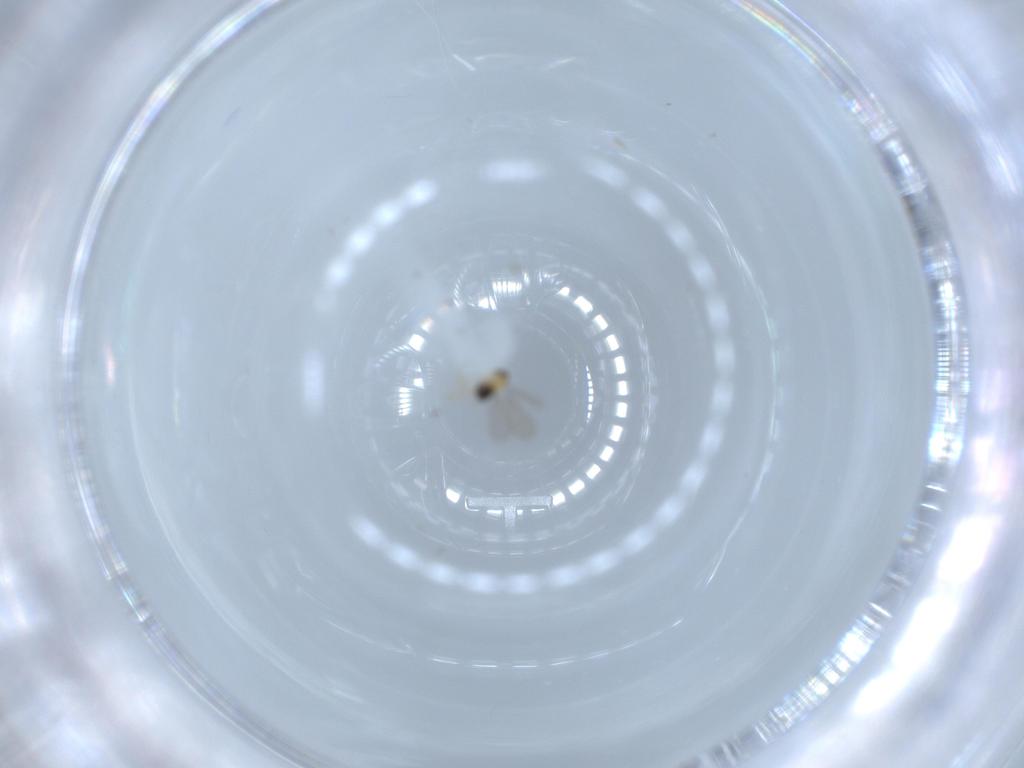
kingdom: Animalia
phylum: Arthropoda
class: Insecta
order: Hymenoptera
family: Aphelinidae
